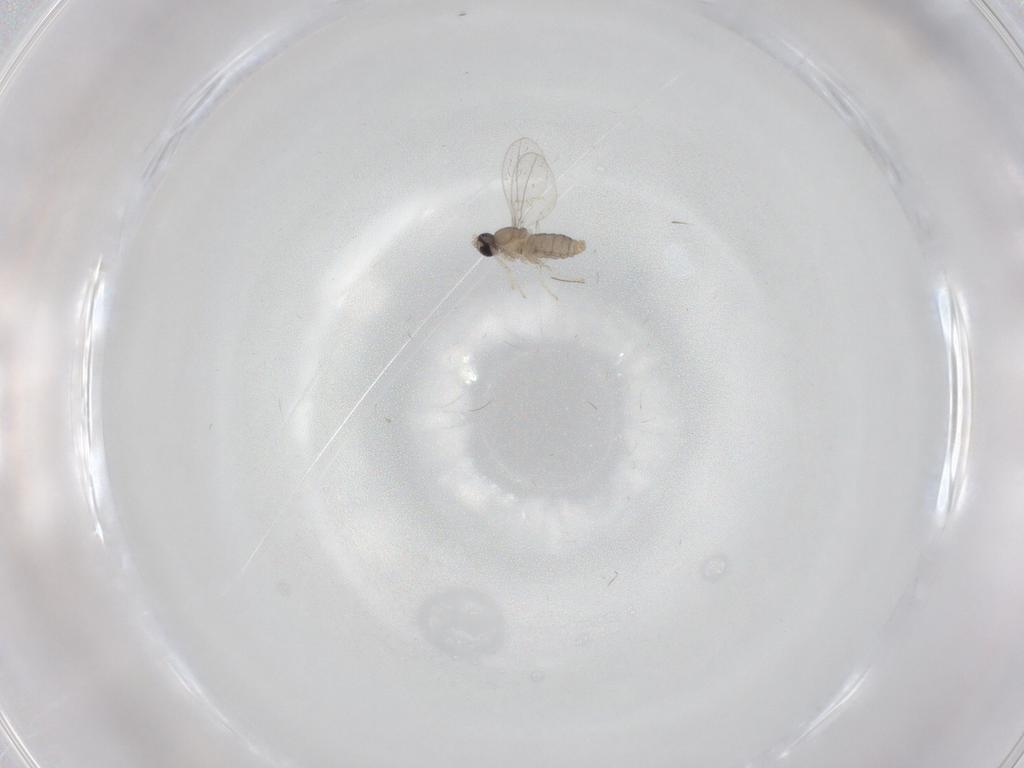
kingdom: Animalia
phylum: Arthropoda
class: Insecta
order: Diptera
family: Cecidomyiidae
